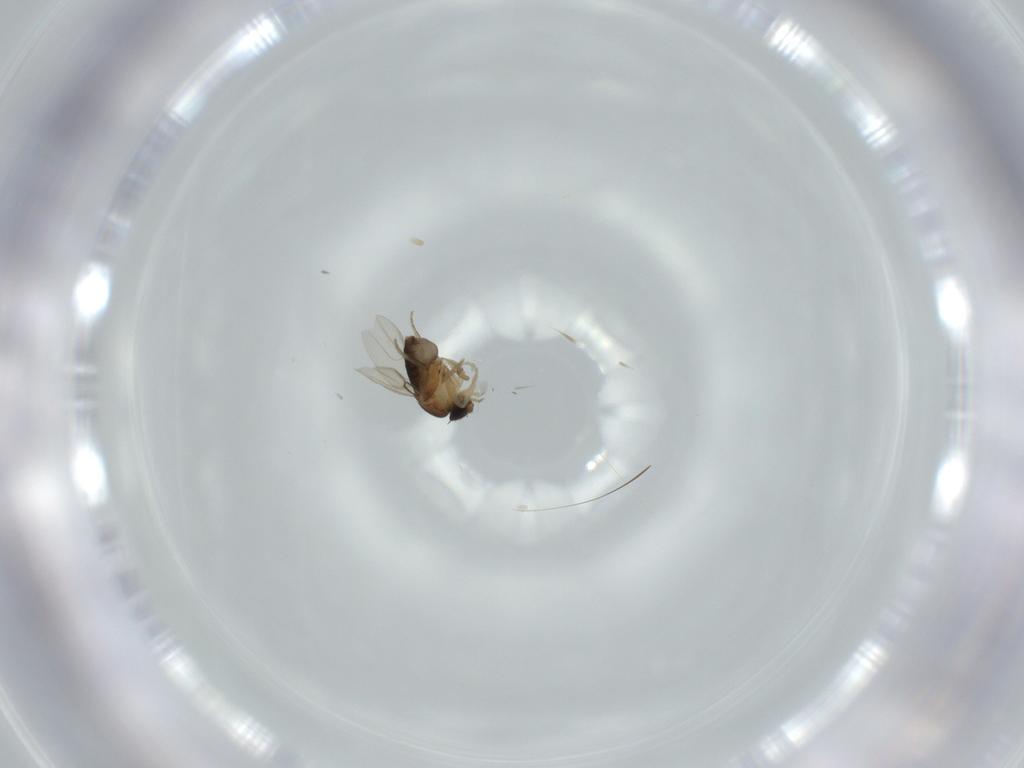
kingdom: Animalia
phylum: Arthropoda
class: Insecta
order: Diptera
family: Phoridae
